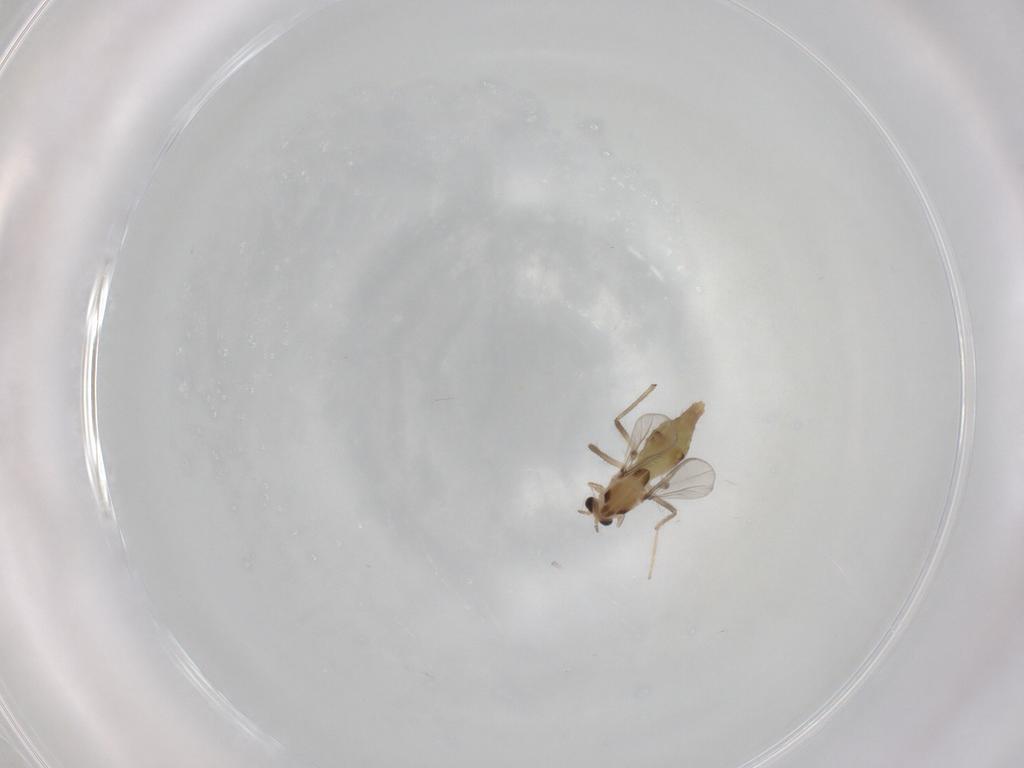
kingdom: Animalia
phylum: Arthropoda
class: Insecta
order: Diptera
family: Chironomidae
